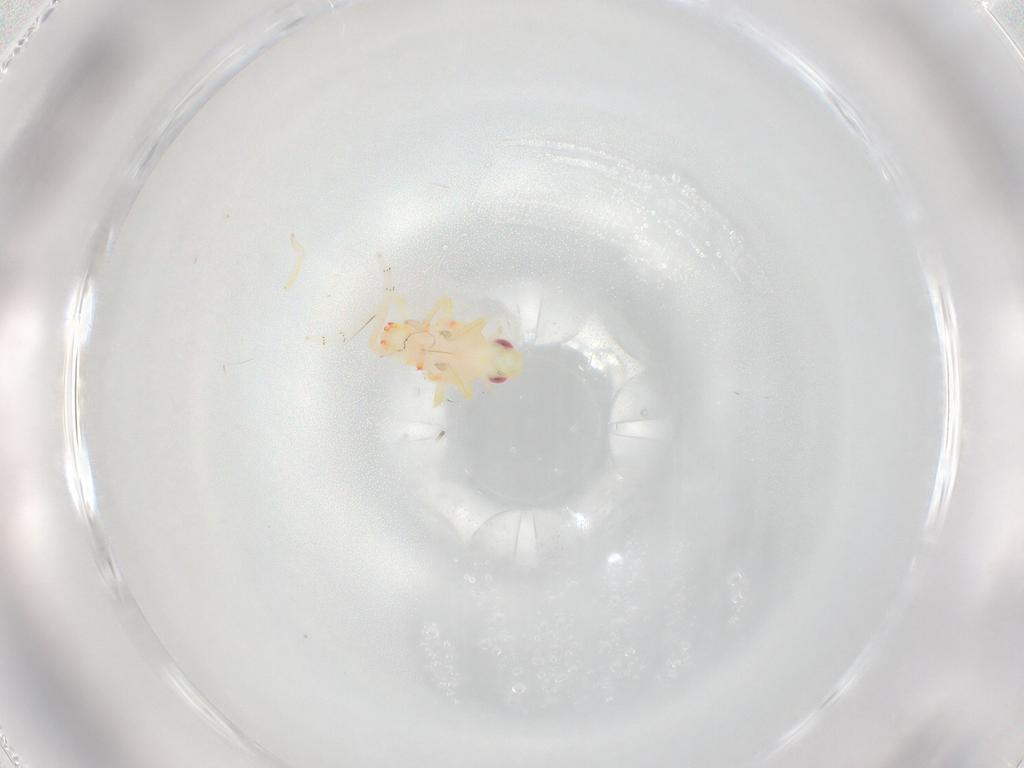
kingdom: Animalia
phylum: Arthropoda
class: Insecta
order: Hemiptera
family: Tropiduchidae
